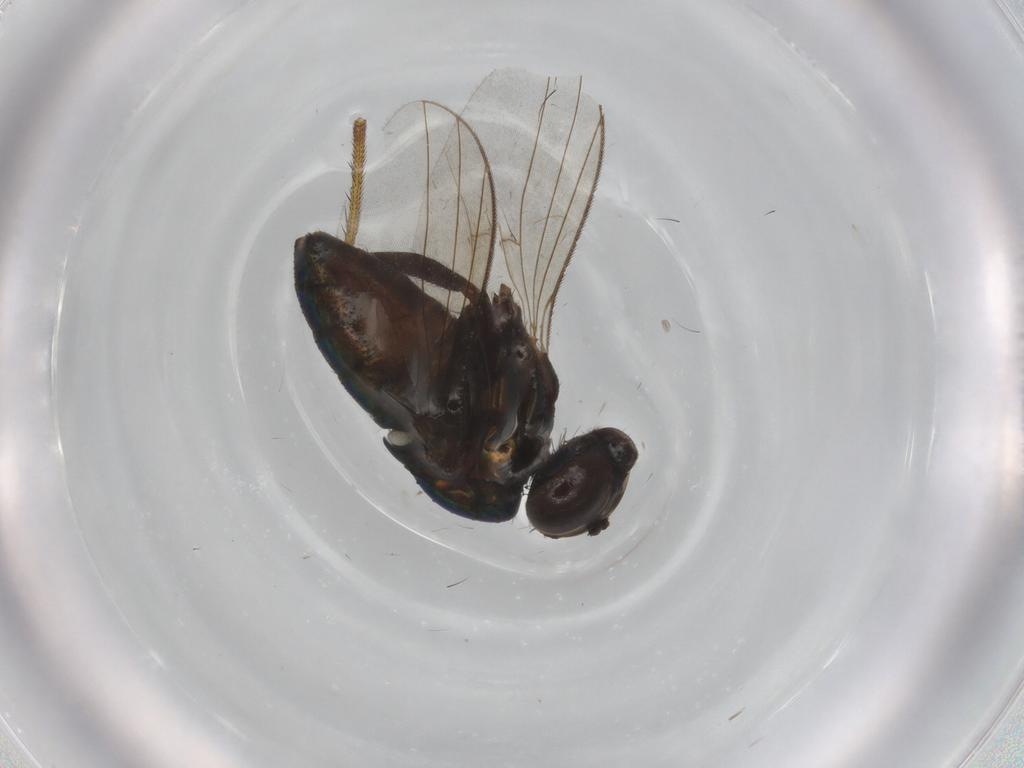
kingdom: Animalia
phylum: Arthropoda
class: Insecta
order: Diptera
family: Dolichopodidae
